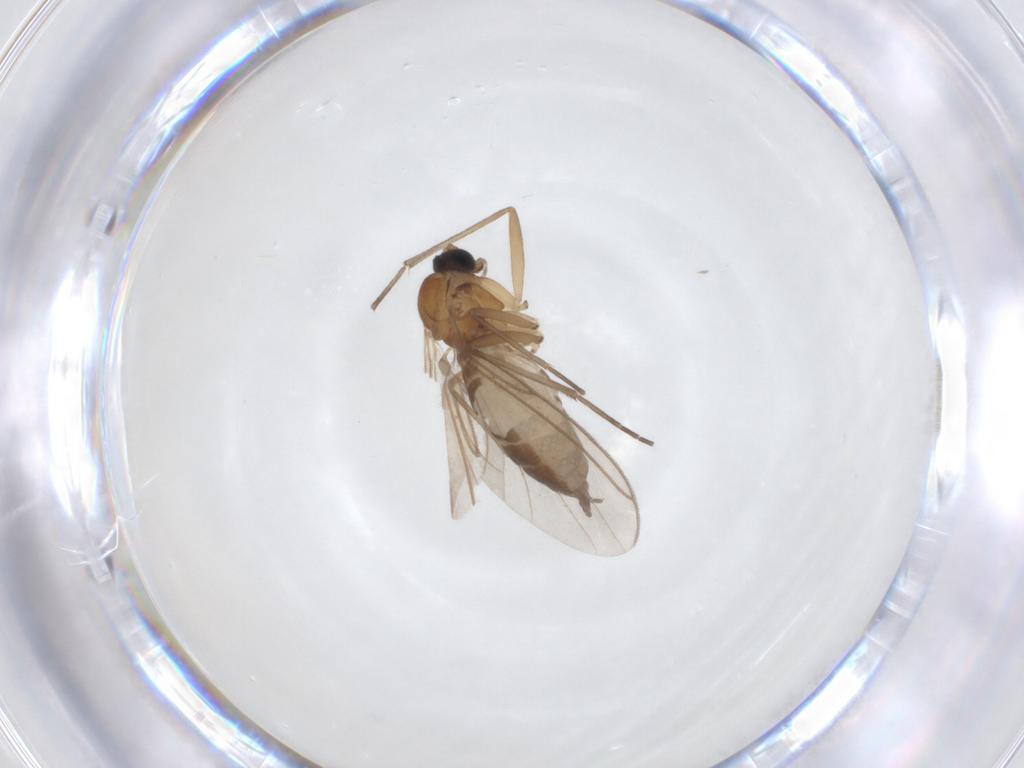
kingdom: Animalia
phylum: Arthropoda
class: Insecta
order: Diptera
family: Sciaridae
